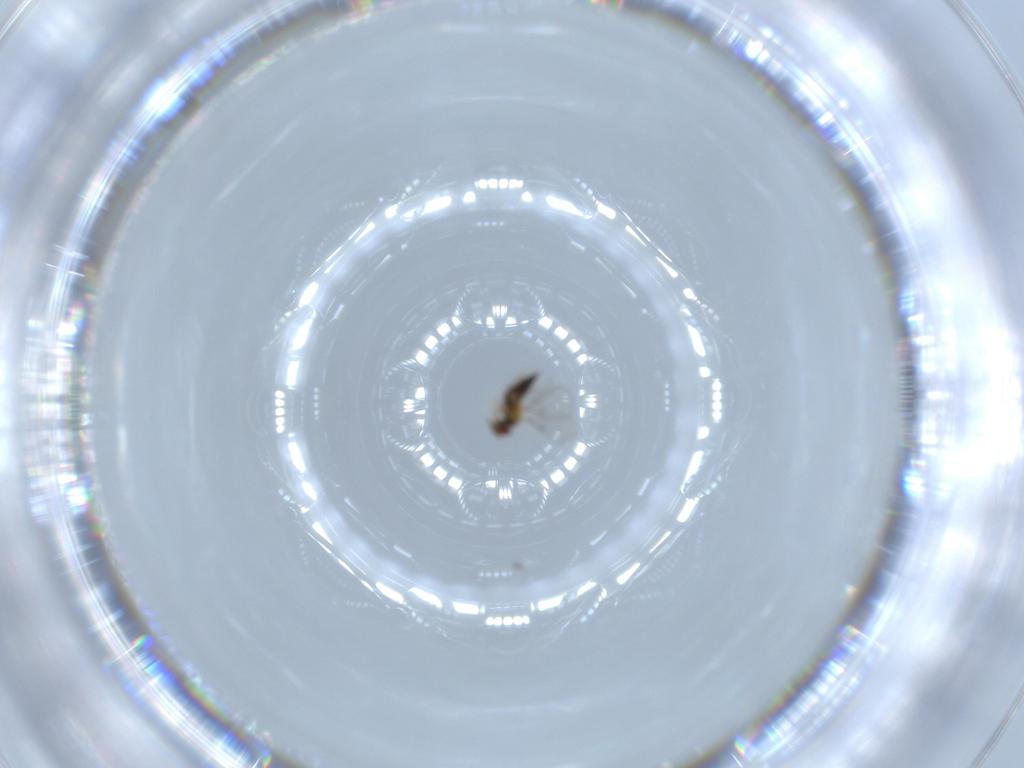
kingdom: Animalia
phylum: Arthropoda
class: Insecta
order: Hymenoptera
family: Trichogrammatidae
